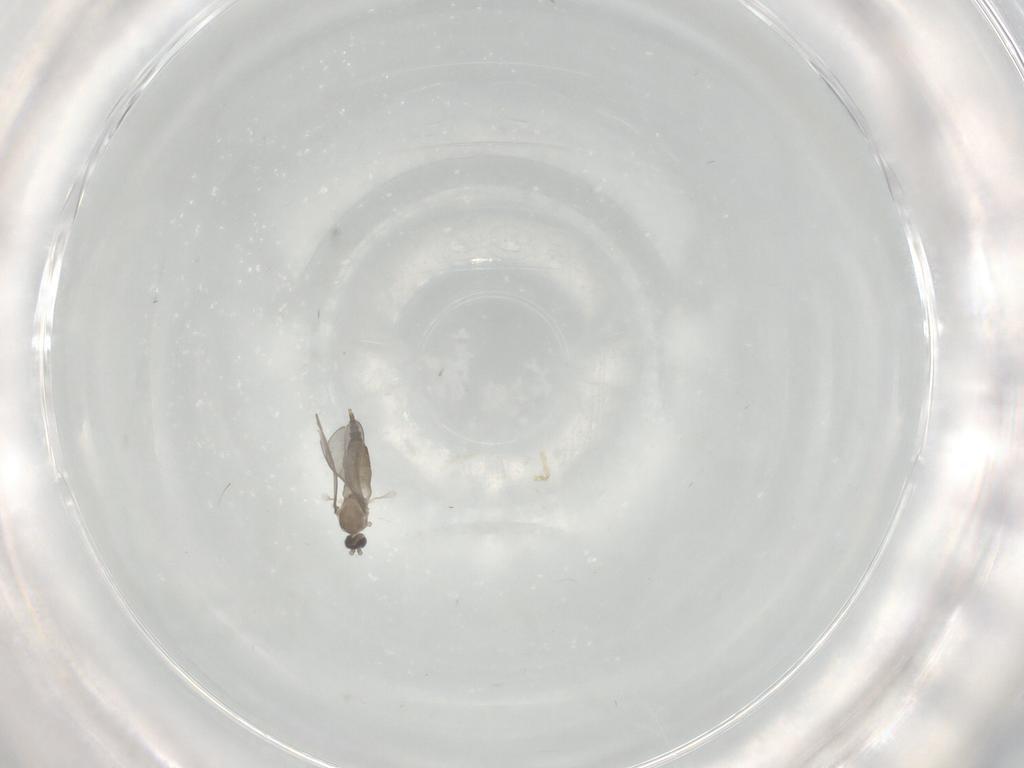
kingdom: Animalia
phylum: Arthropoda
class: Insecta
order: Diptera
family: Cecidomyiidae
